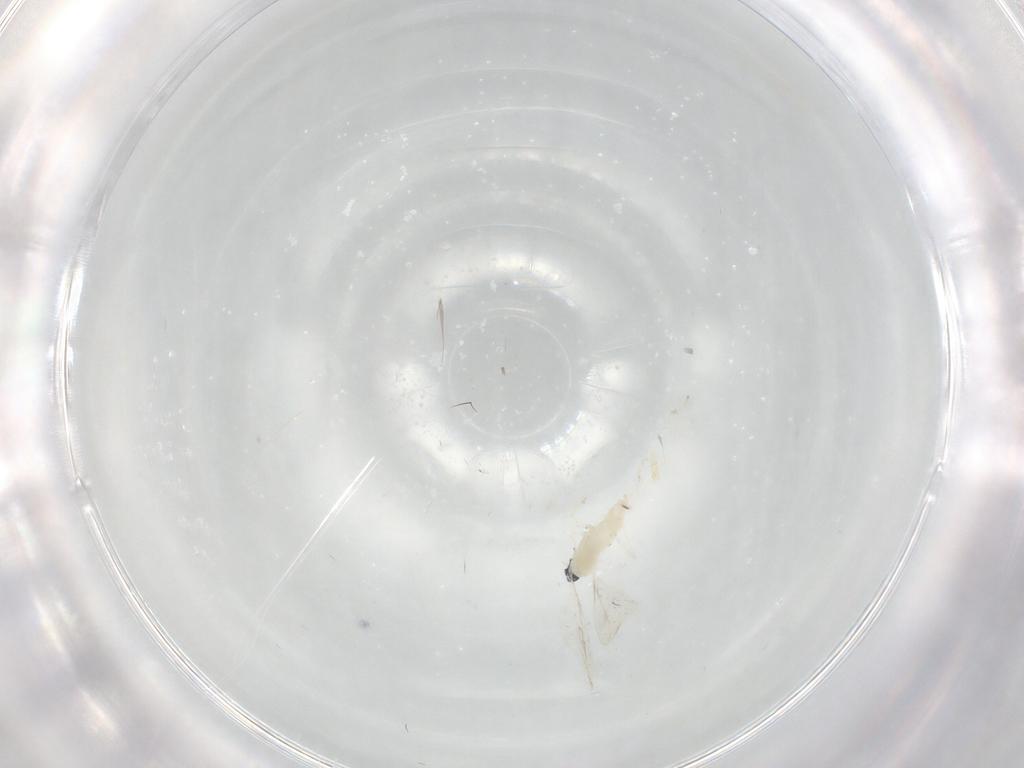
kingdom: Animalia
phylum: Arthropoda
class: Insecta
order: Diptera
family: Cecidomyiidae
